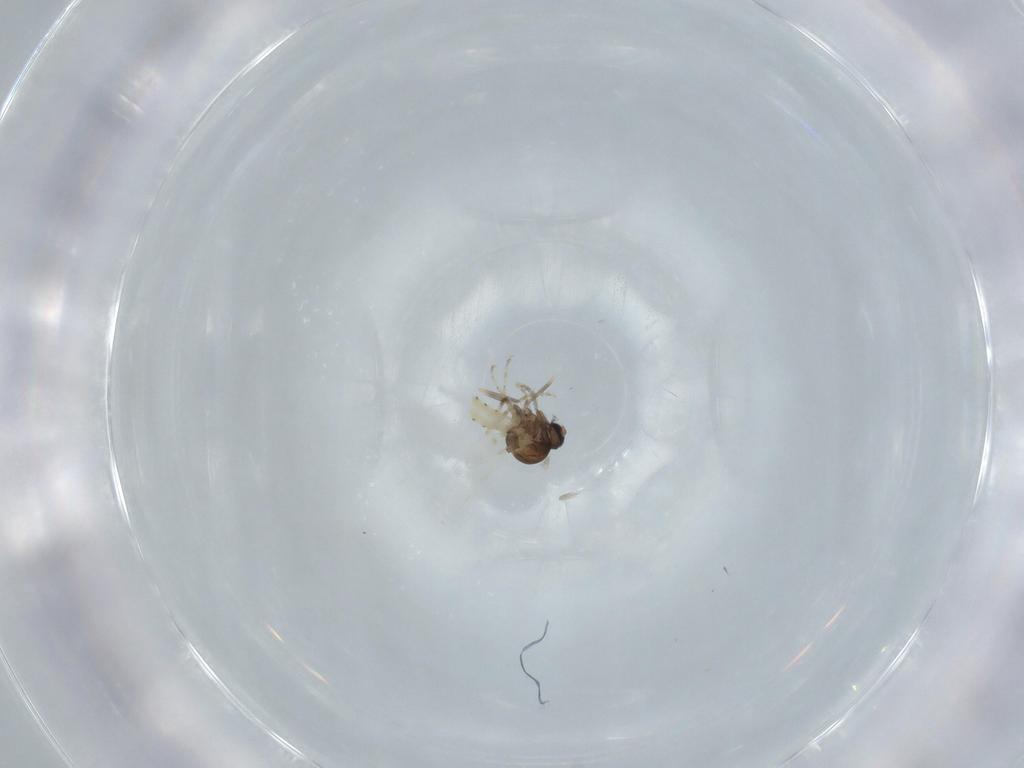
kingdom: Animalia
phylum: Arthropoda
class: Insecta
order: Diptera
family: Ceratopogonidae
